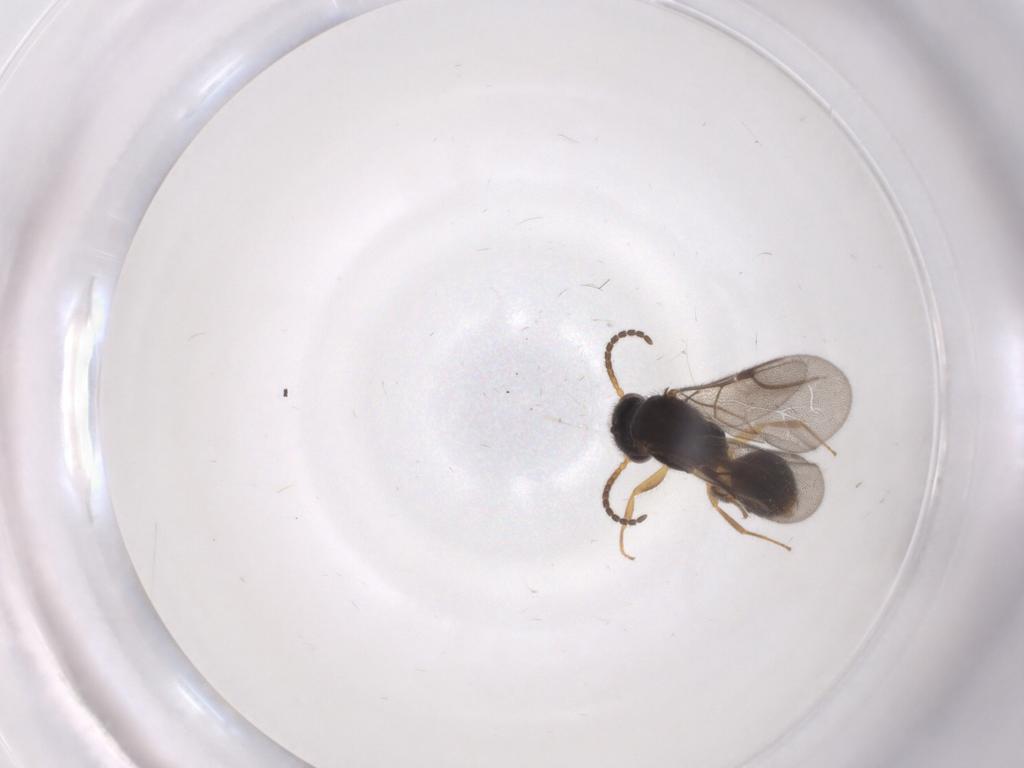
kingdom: Animalia
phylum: Arthropoda
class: Insecta
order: Hymenoptera
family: Bethylidae
